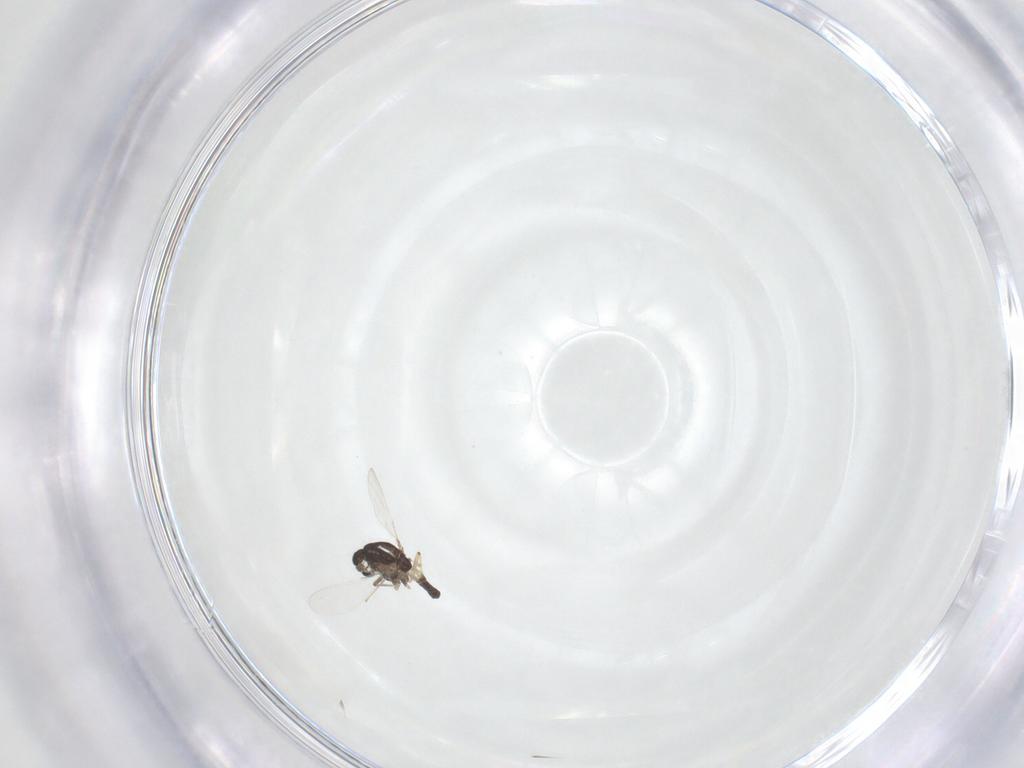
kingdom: Animalia
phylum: Arthropoda
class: Insecta
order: Diptera
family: Chironomidae
